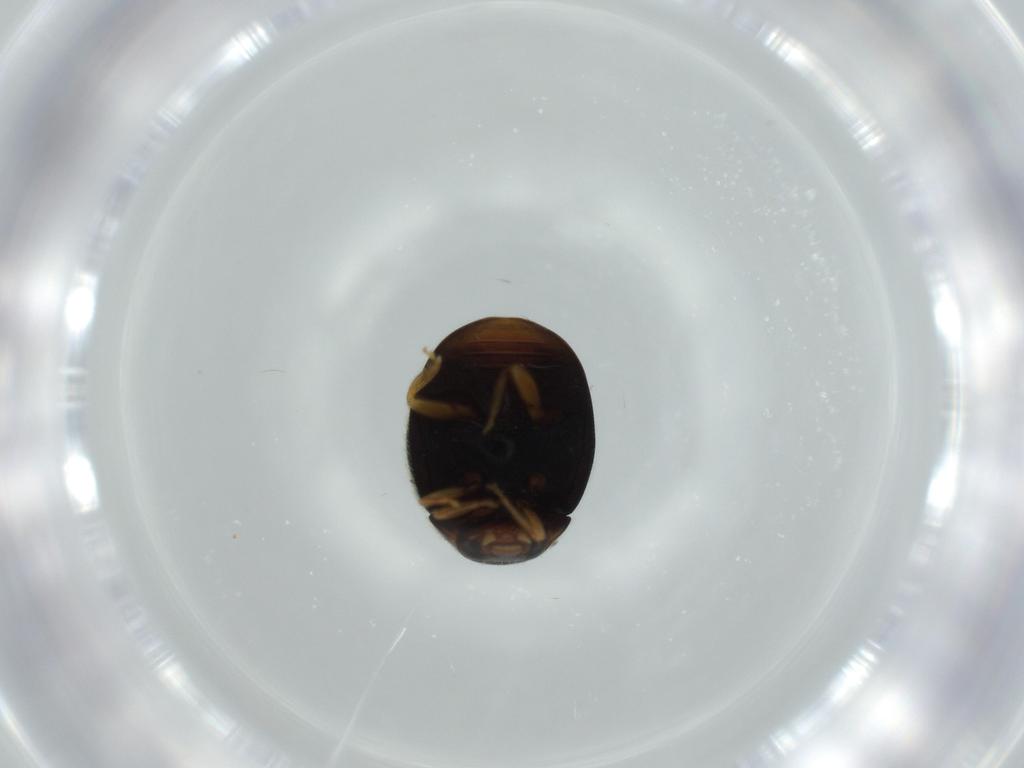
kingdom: Animalia
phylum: Arthropoda
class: Insecta
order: Coleoptera
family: Coccinellidae
